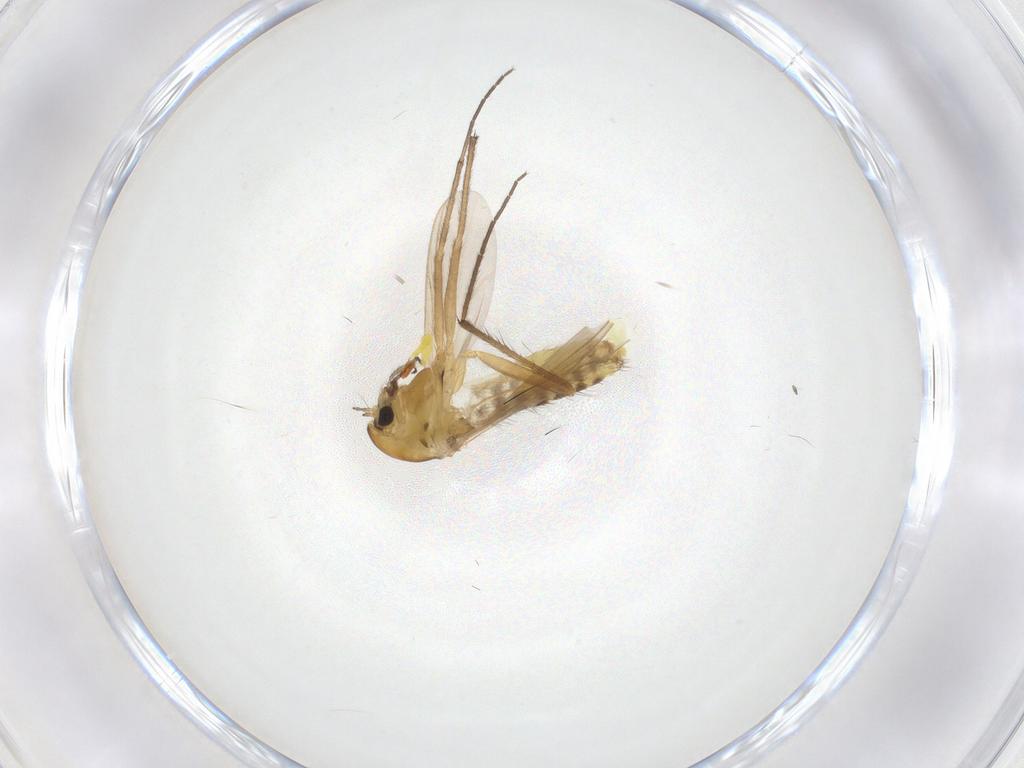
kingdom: Animalia
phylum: Arthropoda
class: Insecta
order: Diptera
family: Chironomidae
